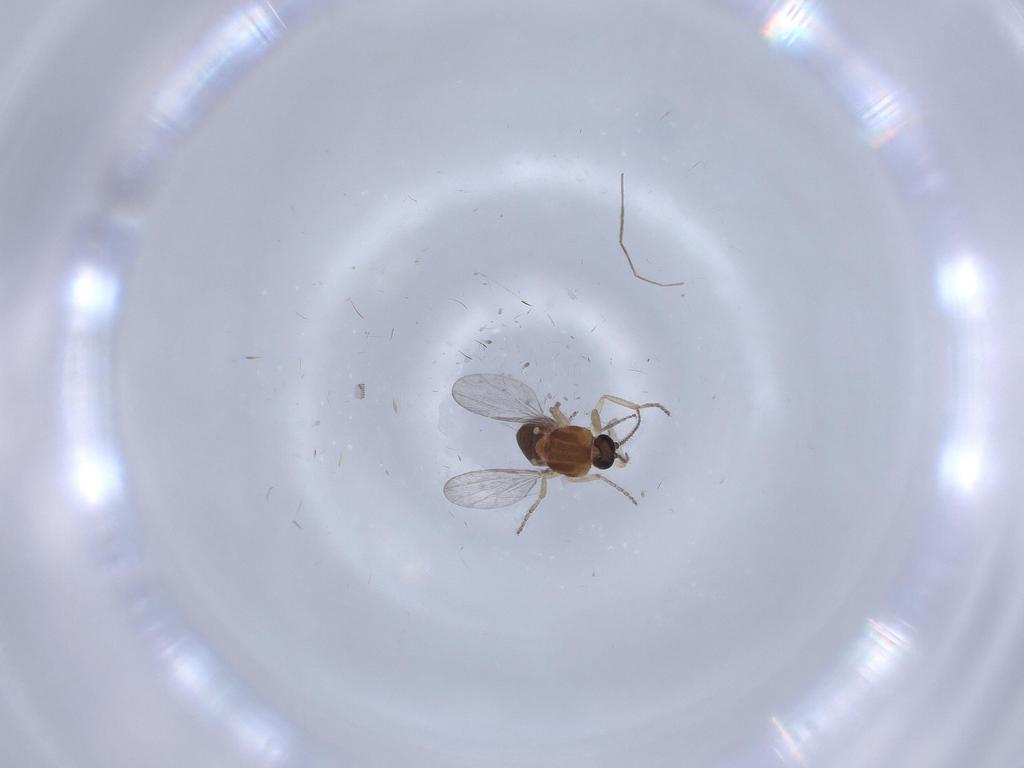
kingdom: Animalia
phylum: Arthropoda
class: Insecta
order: Diptera
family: Ceratopogonidae
